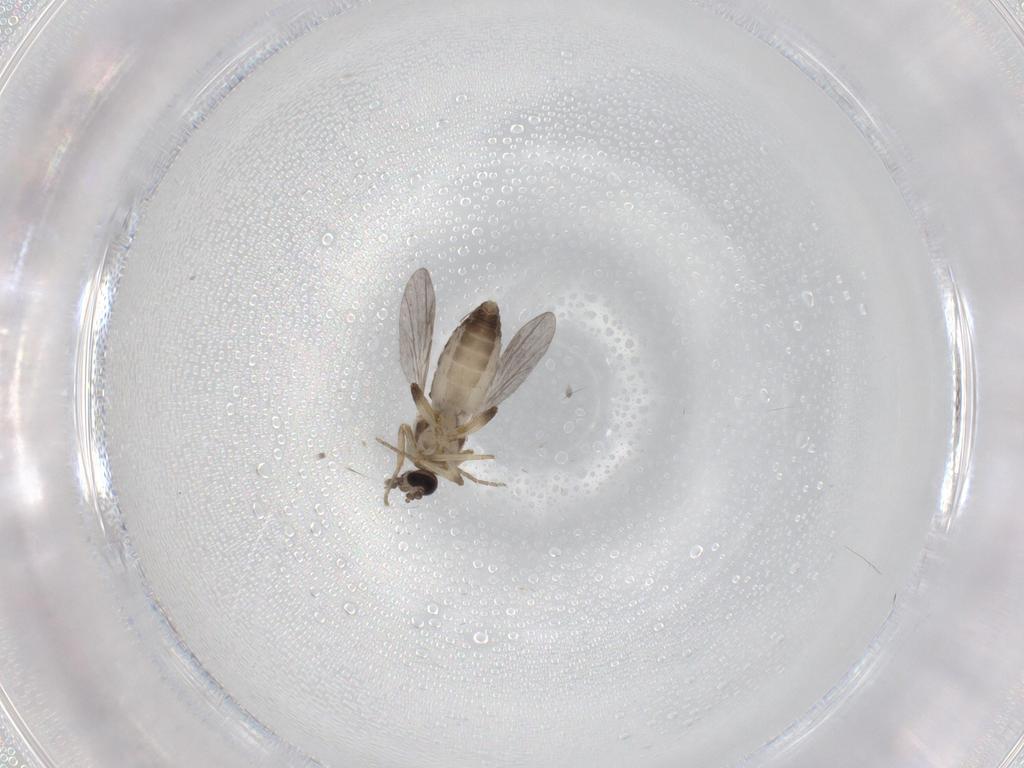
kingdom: Animalia
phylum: Arthropoda
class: Insecta
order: Diptera
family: Ceratopogonidae
